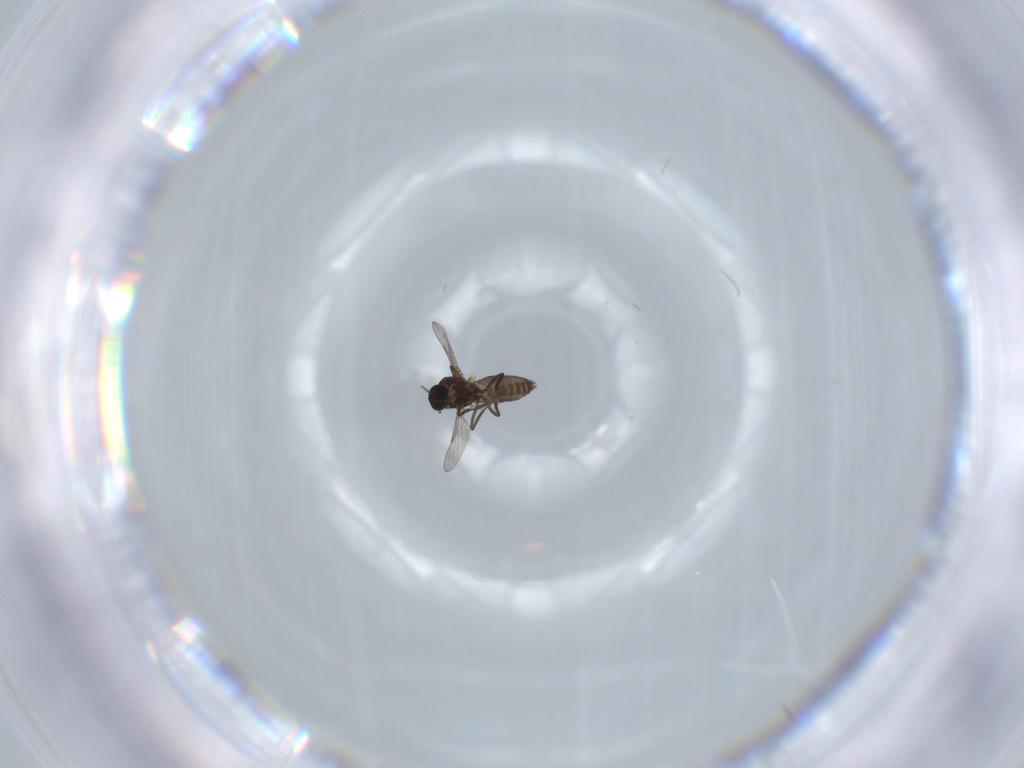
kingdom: Animalia
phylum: Arthropoda
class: Insecta
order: Diptera
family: Ceratopogonidae
